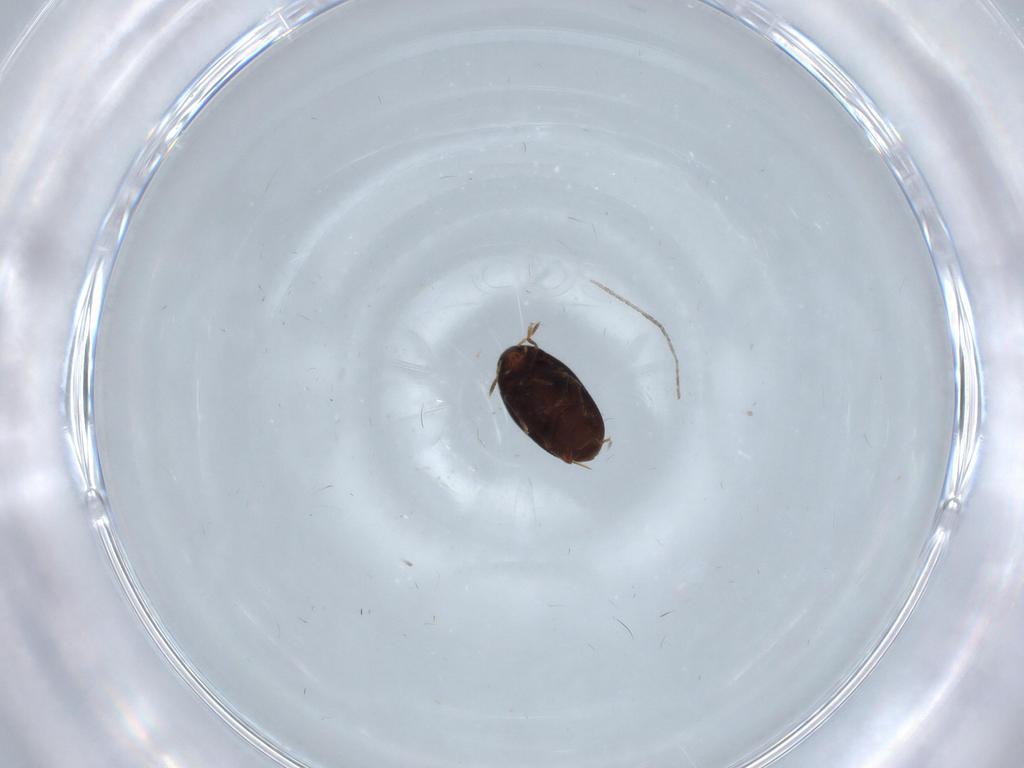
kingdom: Animalia
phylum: Arthropoda
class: Insecta
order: Coleoptera
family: Melandryidae
